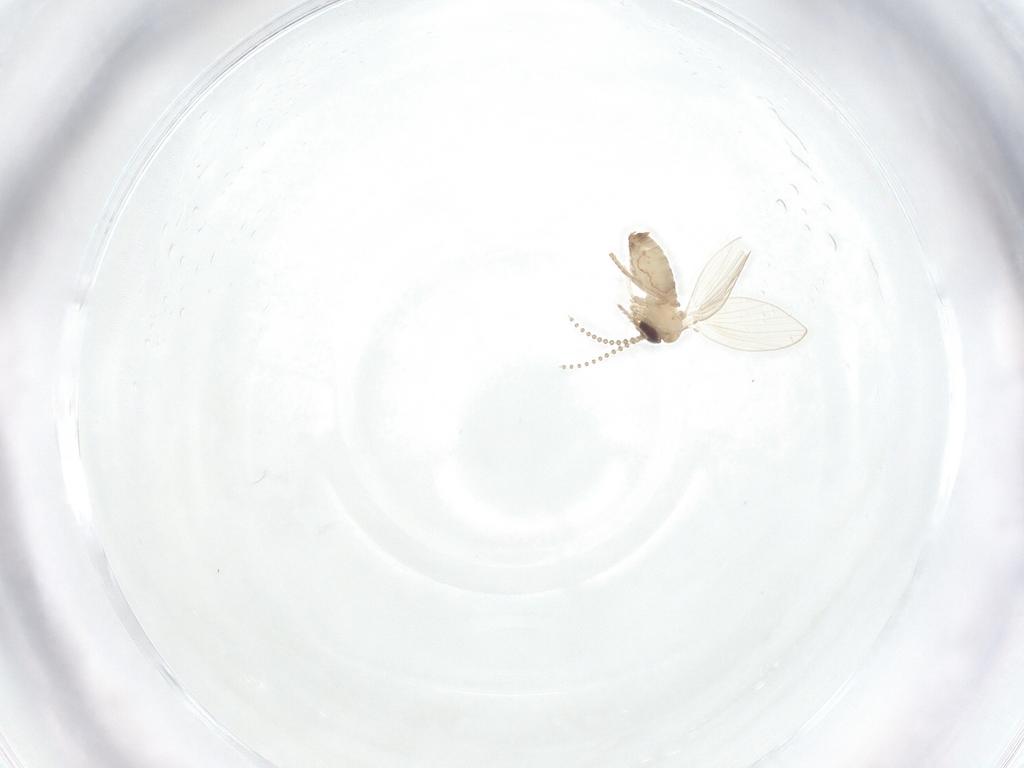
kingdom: Animalia
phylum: Arthropoda
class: Insecta
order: Diptera
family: Psychodidae
